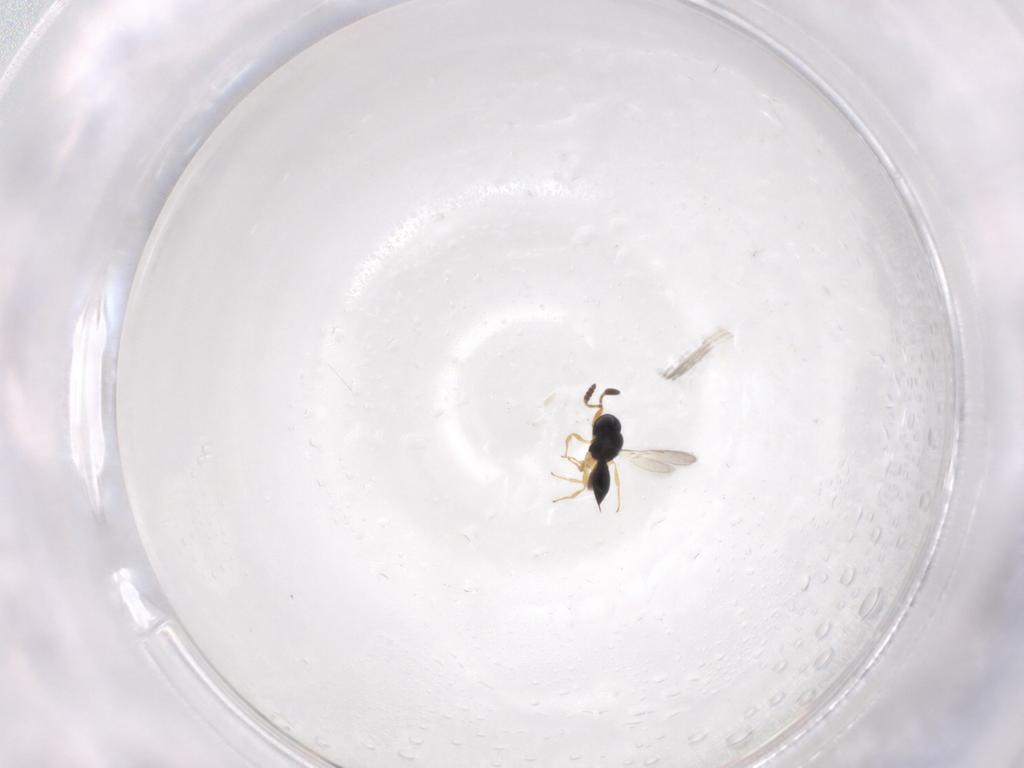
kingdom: Animalia
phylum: Arthropoda
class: Insecta
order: Hymenoptera
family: Scelionidae
